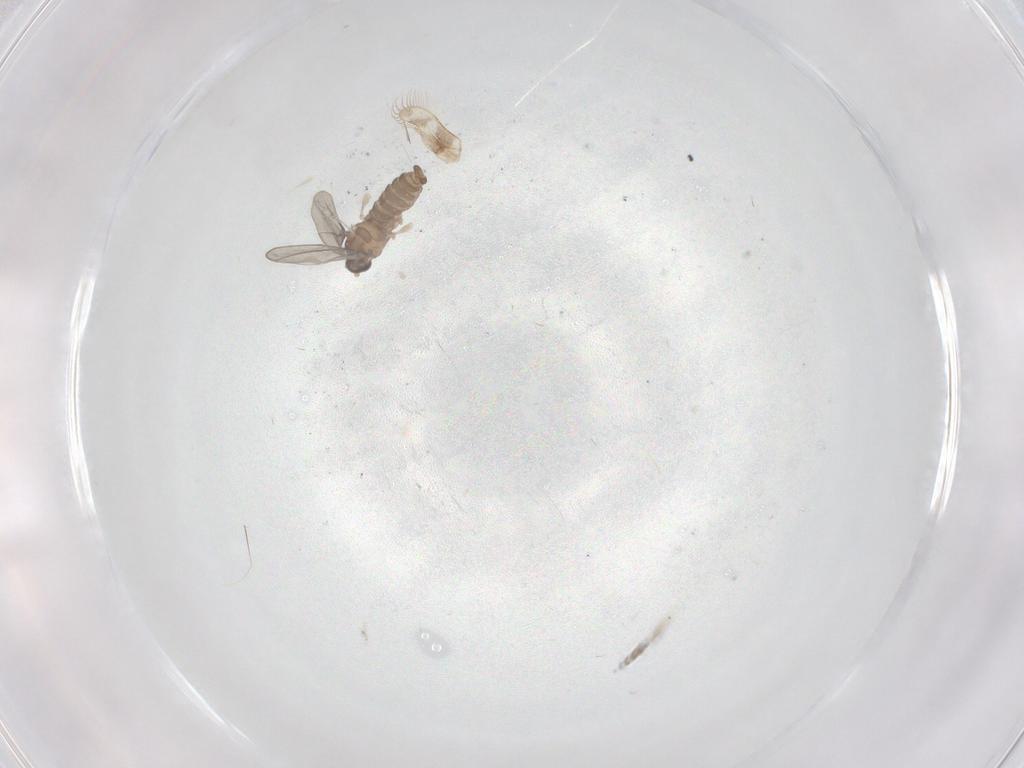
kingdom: Animalia
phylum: Arthropoda
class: Insecta
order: Diptera
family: Cecidomyiidae
